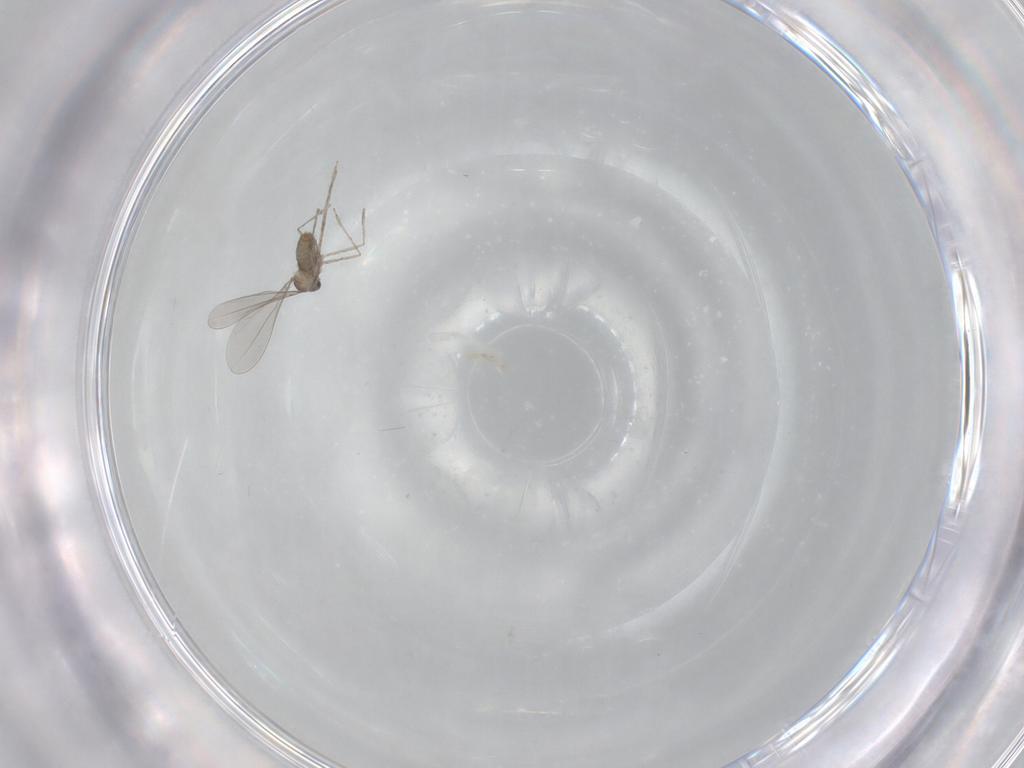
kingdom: Animalia
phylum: Arthropoda
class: Insecta
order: Diptera
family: Cecidomyiidae
